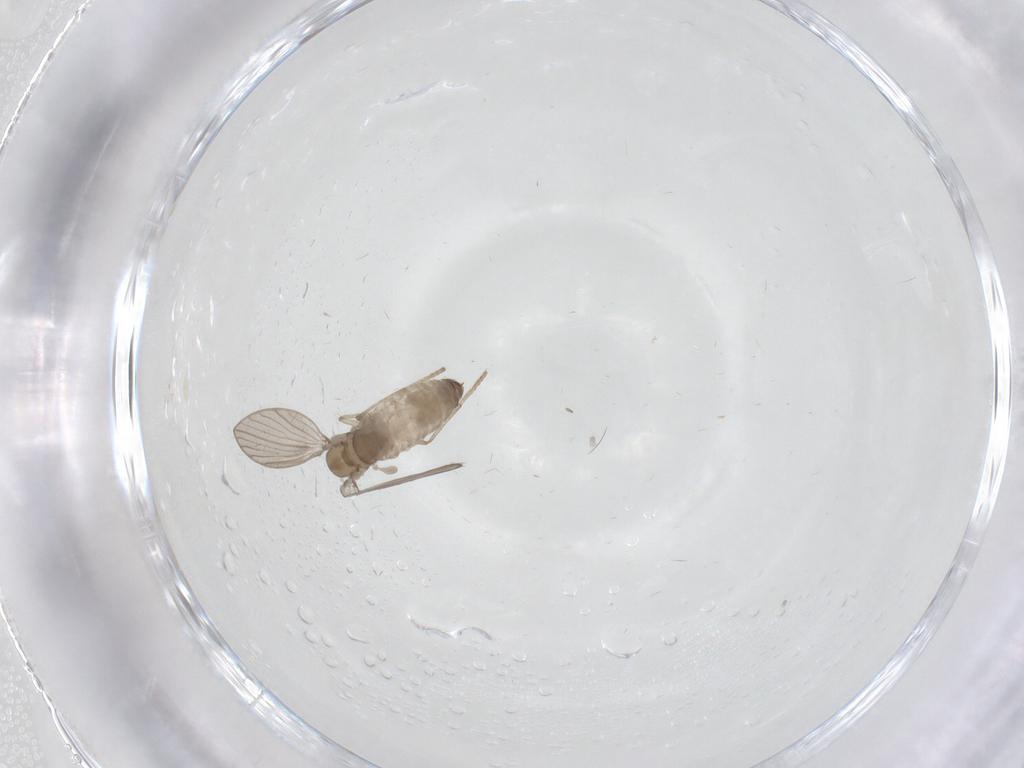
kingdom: Animalia
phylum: Arthropoda
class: Insecta
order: Diptera
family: Psychodidae
